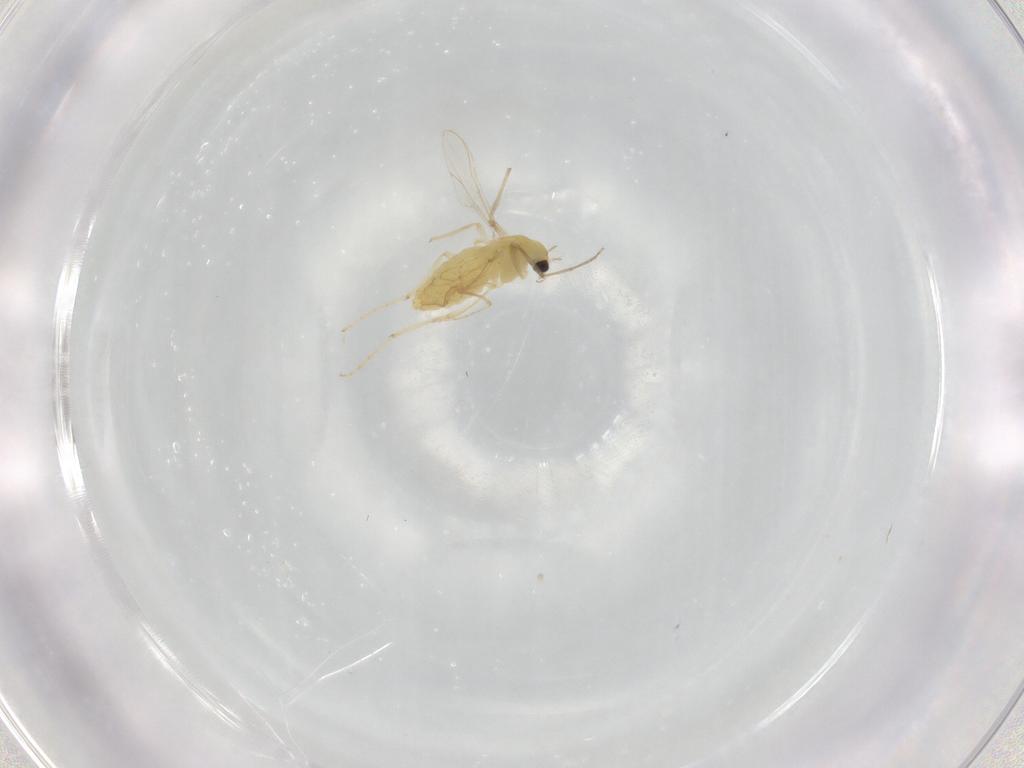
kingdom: Animalia
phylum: Arthropoda
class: Insecta
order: Diptera
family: Chironomidae
